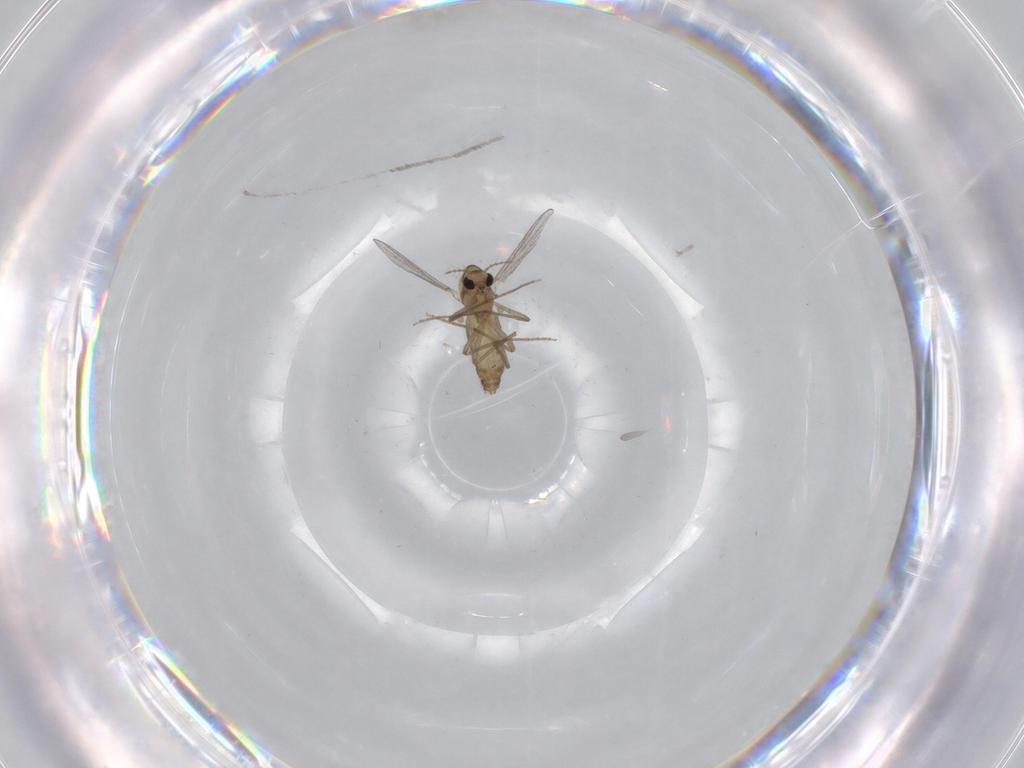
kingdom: Animalia
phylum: Arthropoda
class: Insecta
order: Diptera
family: Chironomidae
